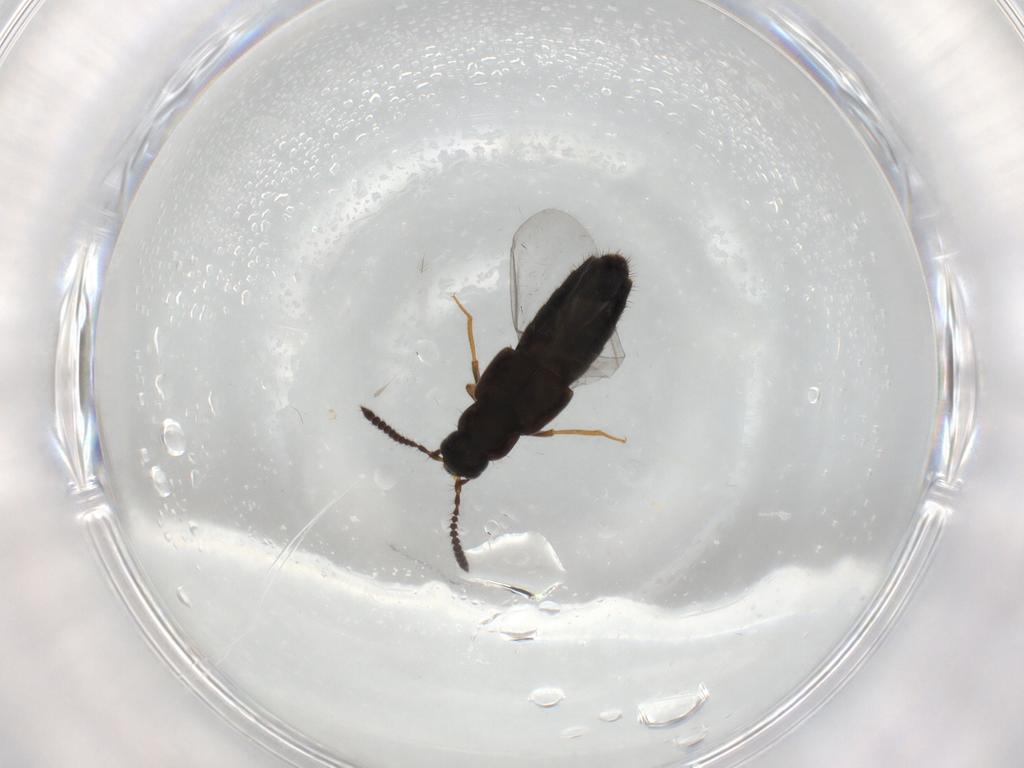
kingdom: Animalia
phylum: Arthropoda
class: Insecta
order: Coleoptera
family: Staphylinidae
